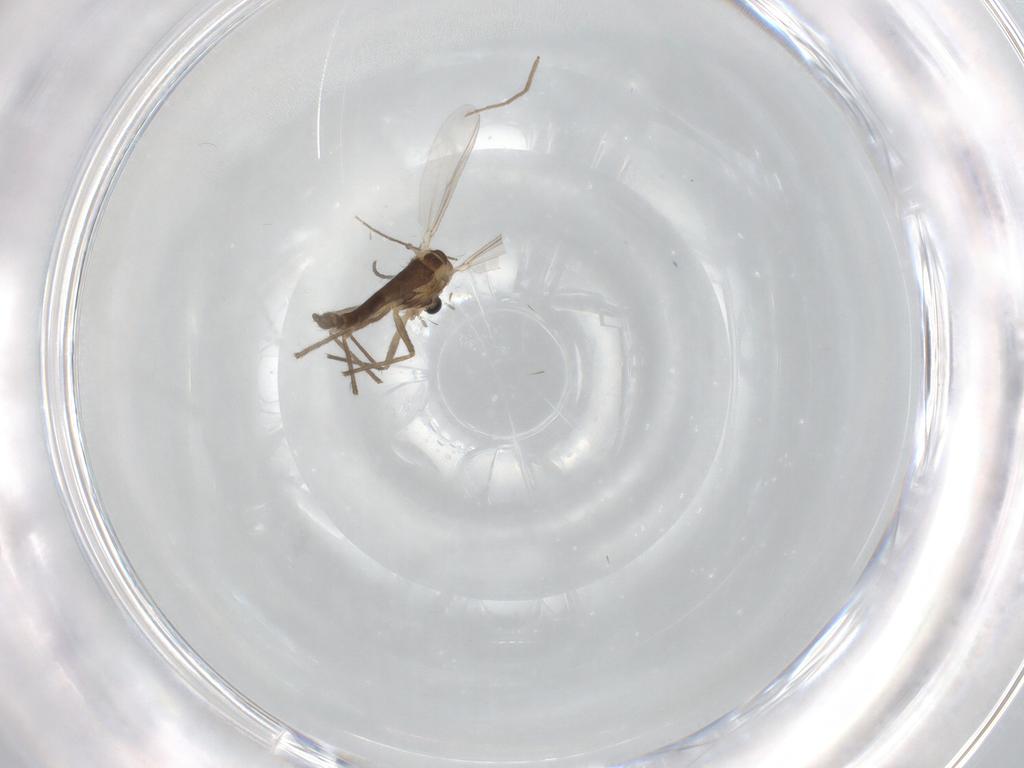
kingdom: Animalia
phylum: Arthropoda
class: Insecta
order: Diptera
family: Chironomidae
